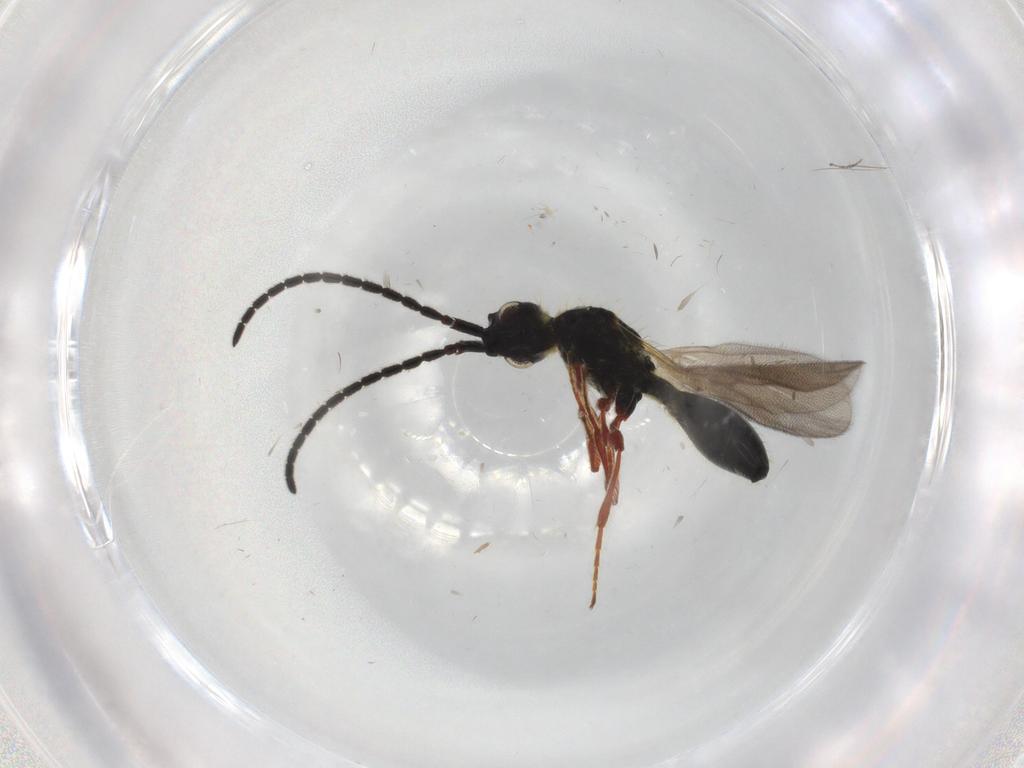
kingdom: Animalia
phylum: Arthropoda
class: Insecta
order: Hymenoptera
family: Diapriidae
